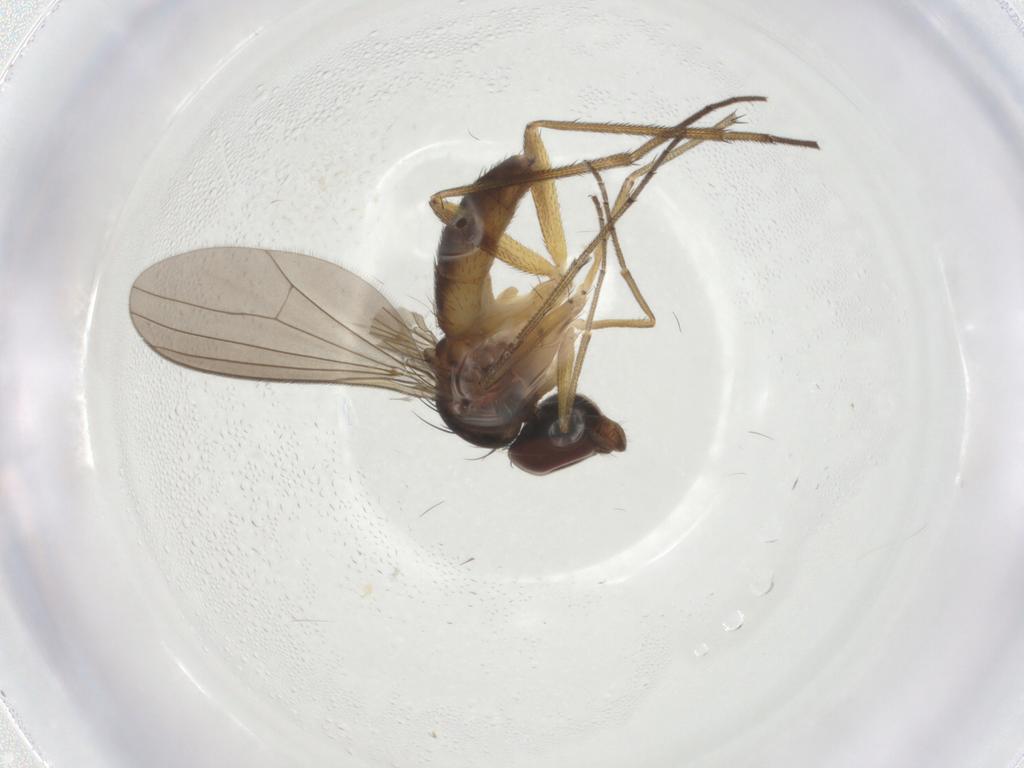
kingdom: Animalia
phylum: Arthropoda
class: Insecta
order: Diptera
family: Dolichopodidae
